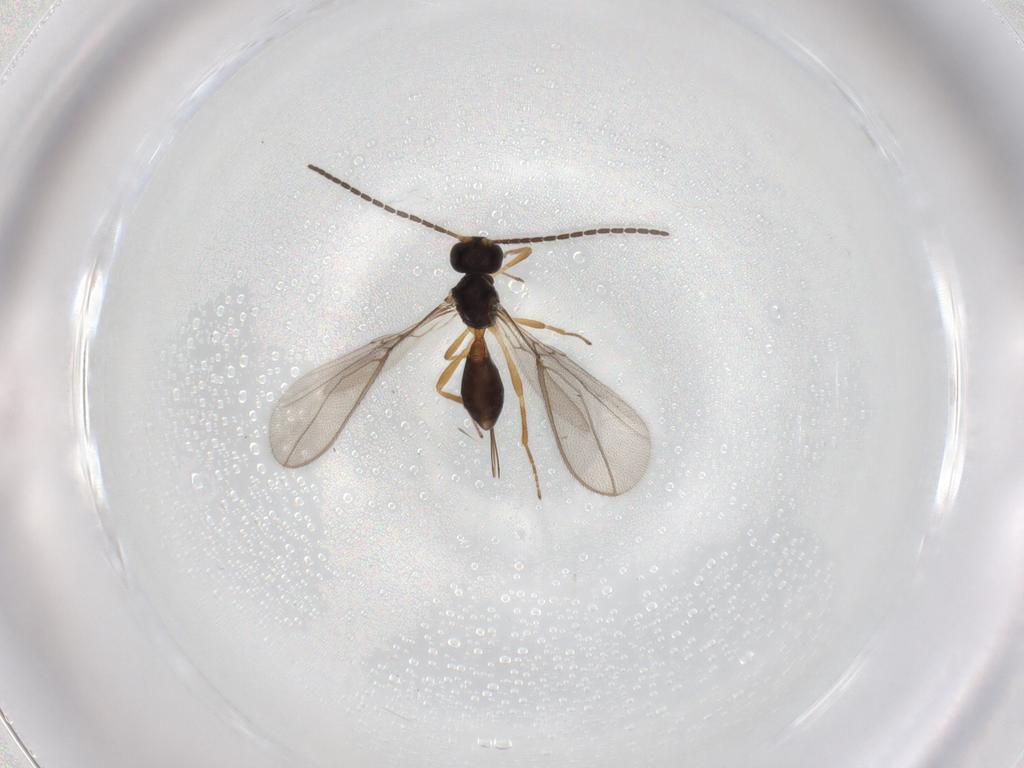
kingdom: Animalia
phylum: Arthropoda
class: Insecta
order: Hymenoptera
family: Braconidae
